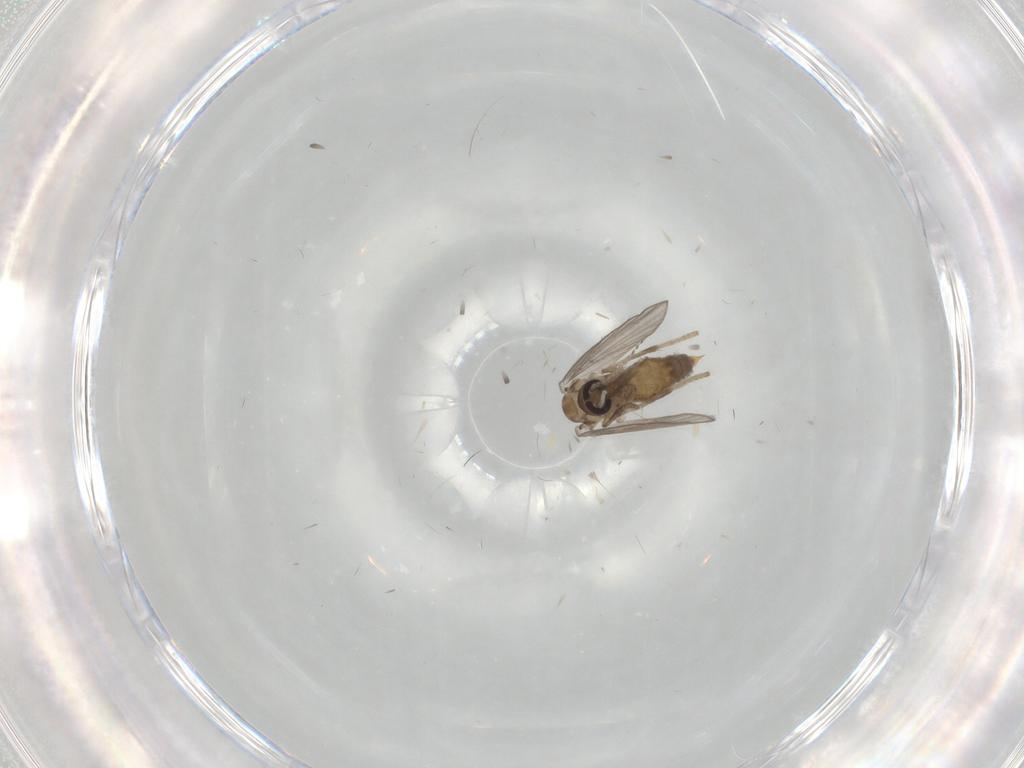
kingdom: Animalia
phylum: Arthropoda
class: Insecta
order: Diptera
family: Psychodidae
